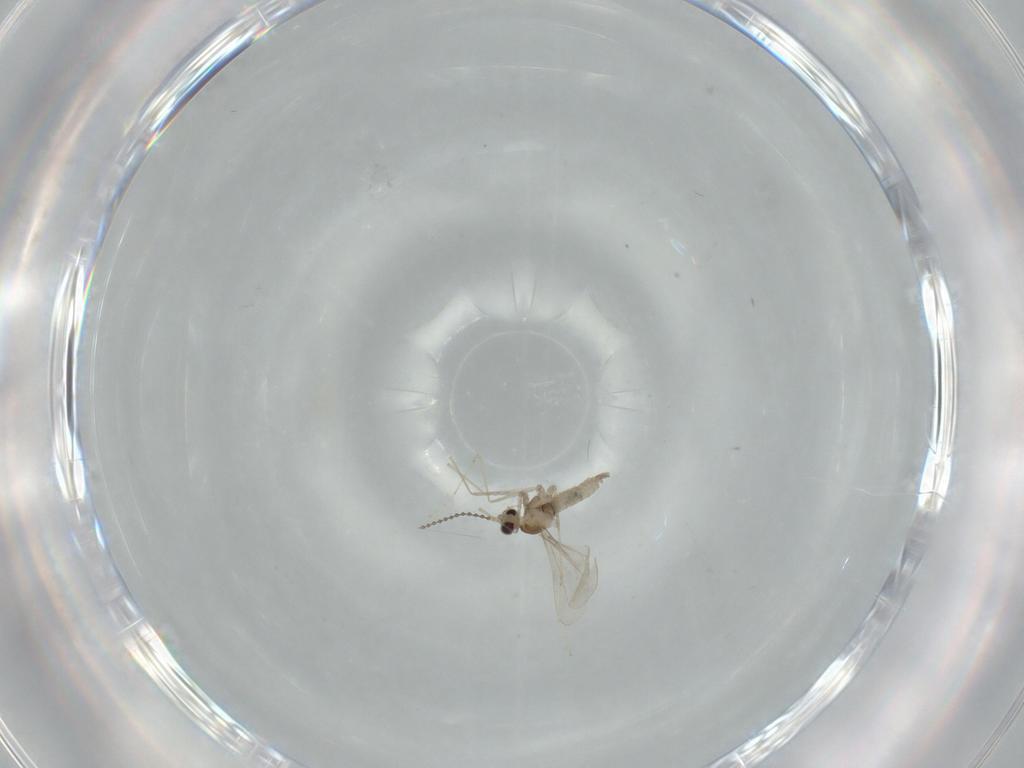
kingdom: Animalia
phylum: Arthropoda
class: Insecta
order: Diptera
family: Cecidomyiidae
